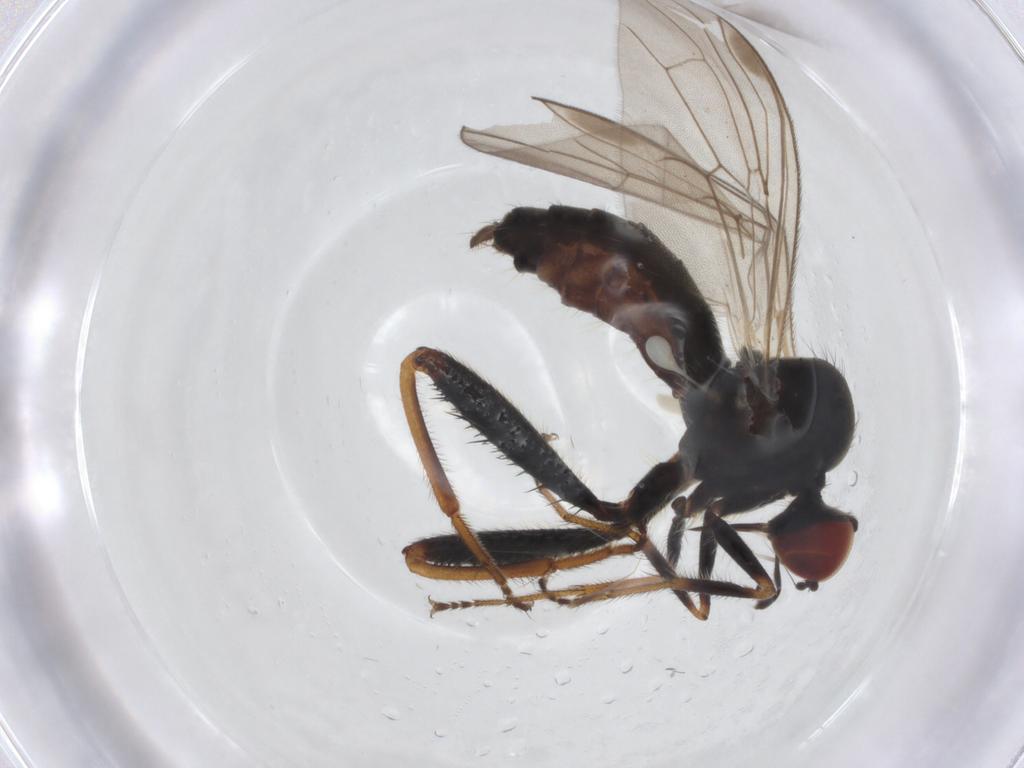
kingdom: Animalia
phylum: Arthropoda
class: Insecta
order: Diptera
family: Hybotidae
